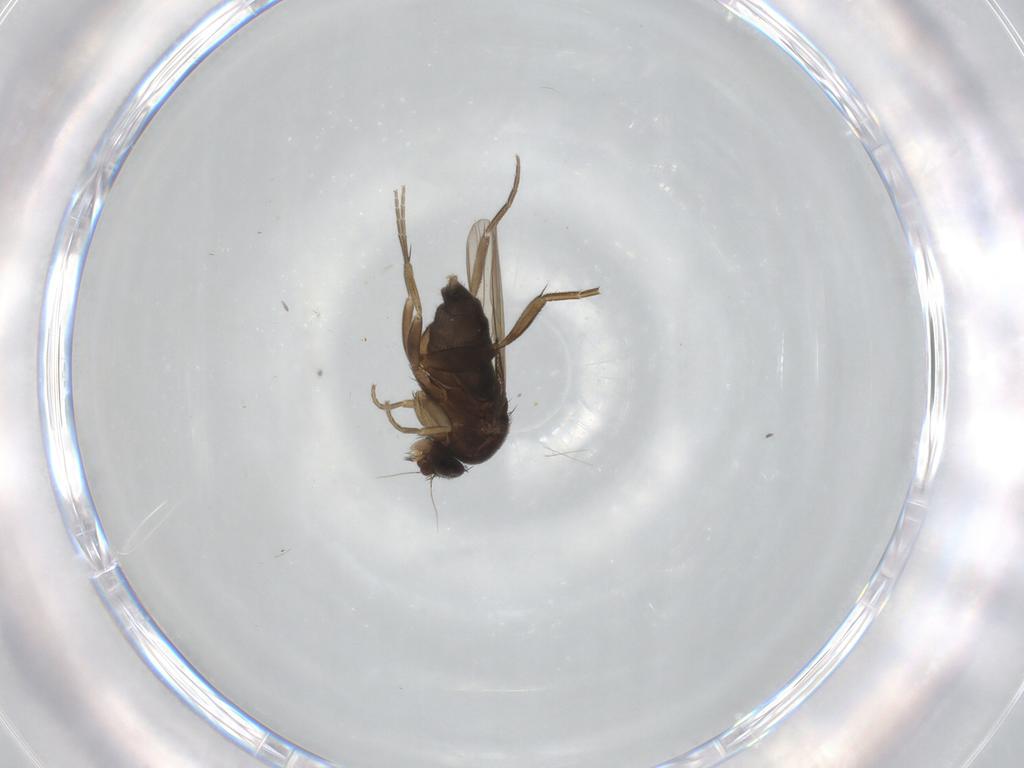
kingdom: Animalia
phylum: Arthropoda
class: Insecta
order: Diptera
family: Phoridae
